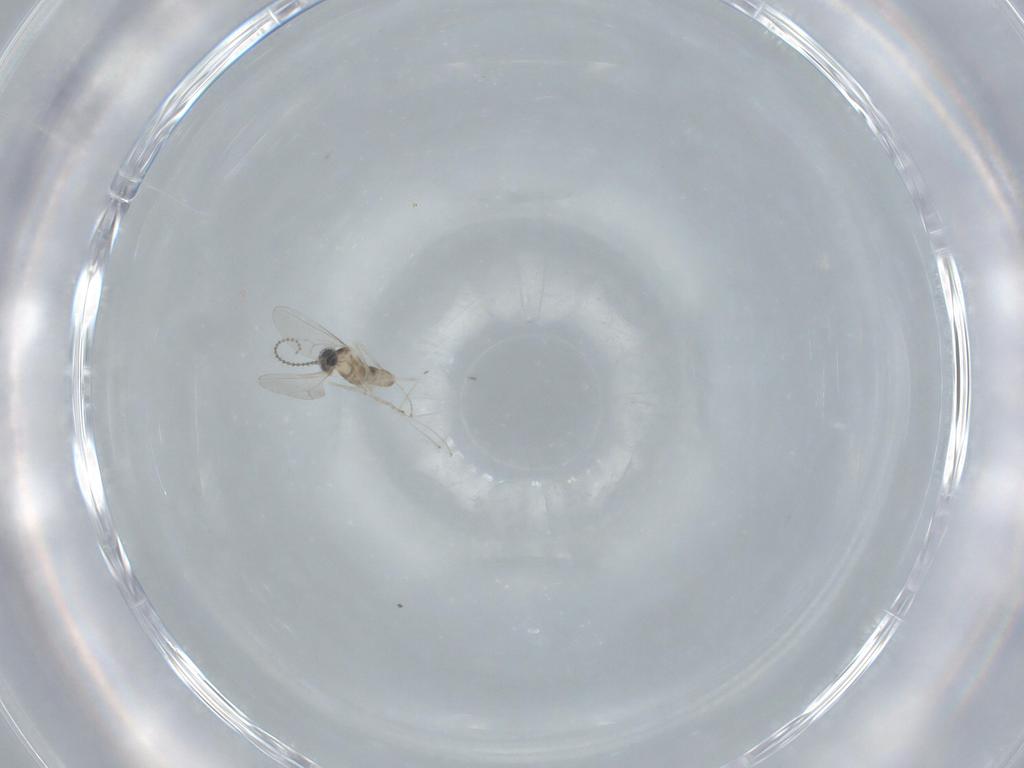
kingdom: Animalia
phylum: Arthropoda
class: Insecta
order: Diptera
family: Cecidomyiidae
